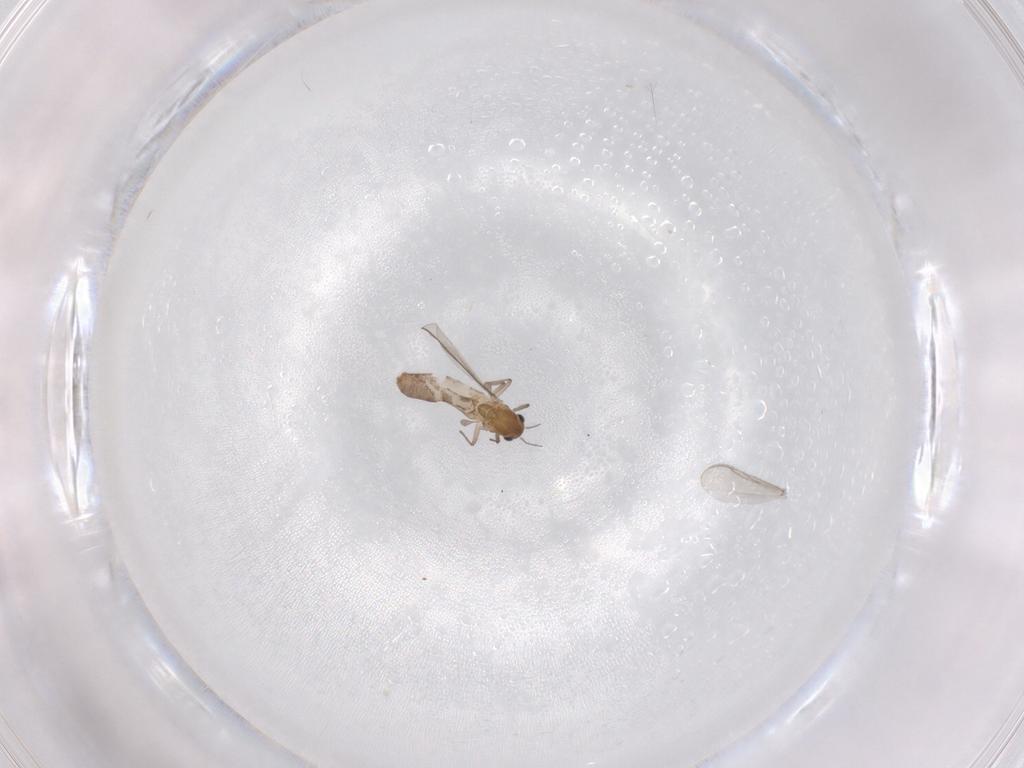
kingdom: Animalia
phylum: Arthropoda
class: Insecta
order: Diptera
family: Chironomidae
